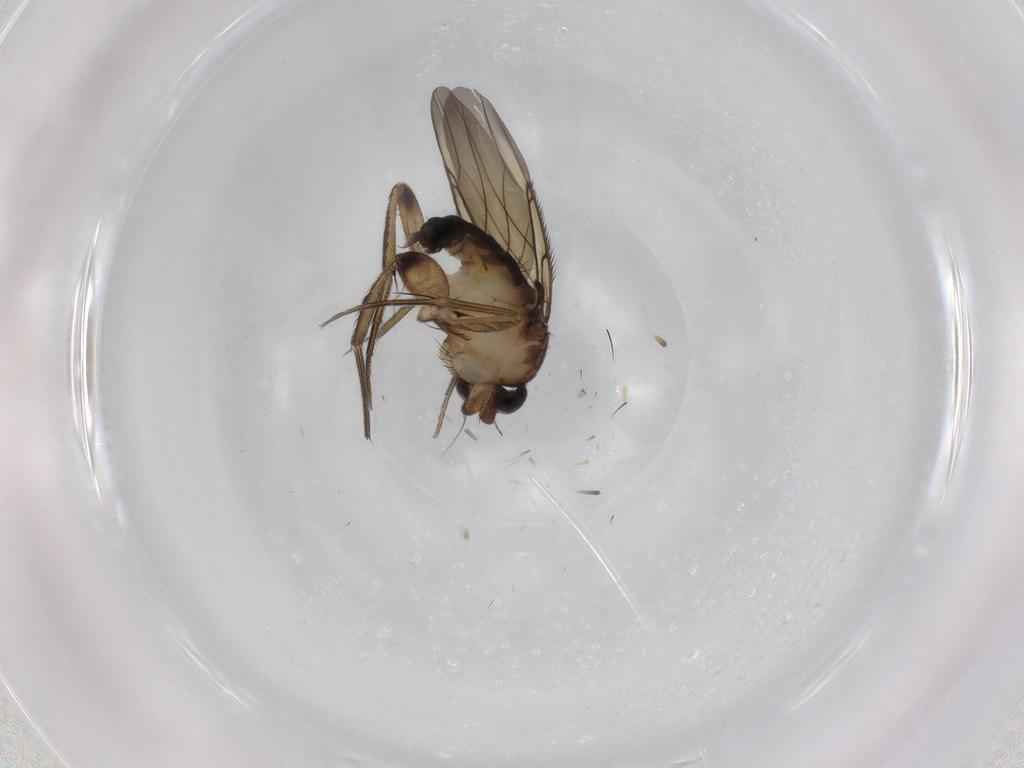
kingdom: Animalia
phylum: Arthropoda
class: Insecta
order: Diptera
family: Phoridae
